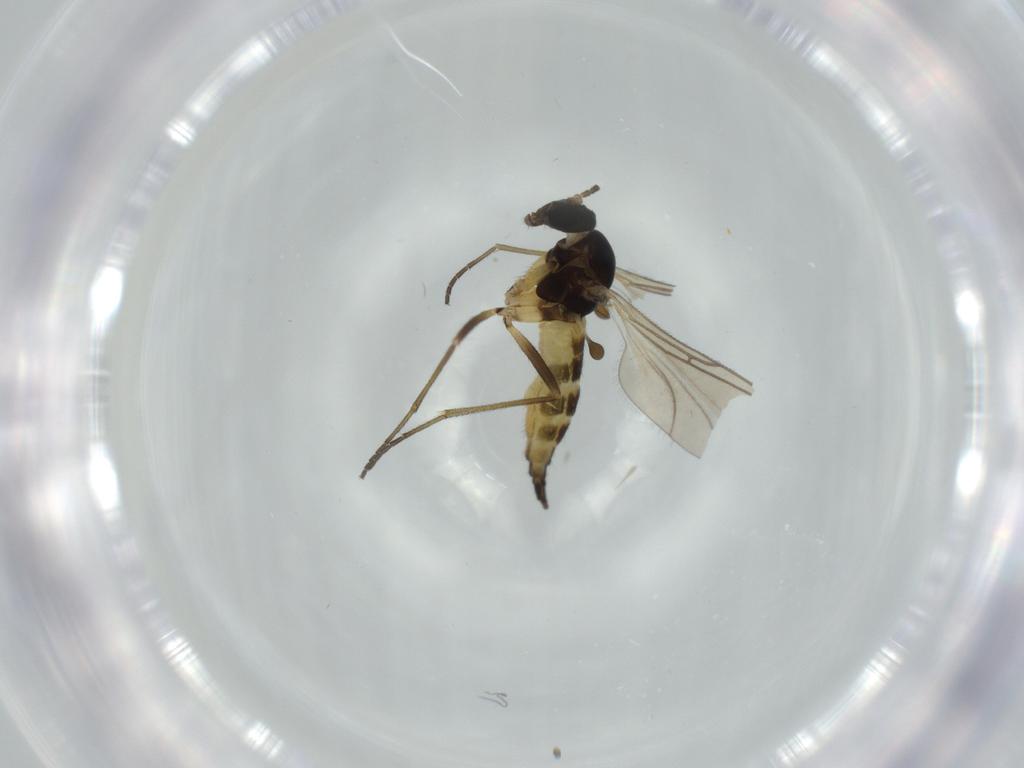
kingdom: Animalia
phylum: Arthropoda
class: Insecta
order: Diptera
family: Sciaridae
